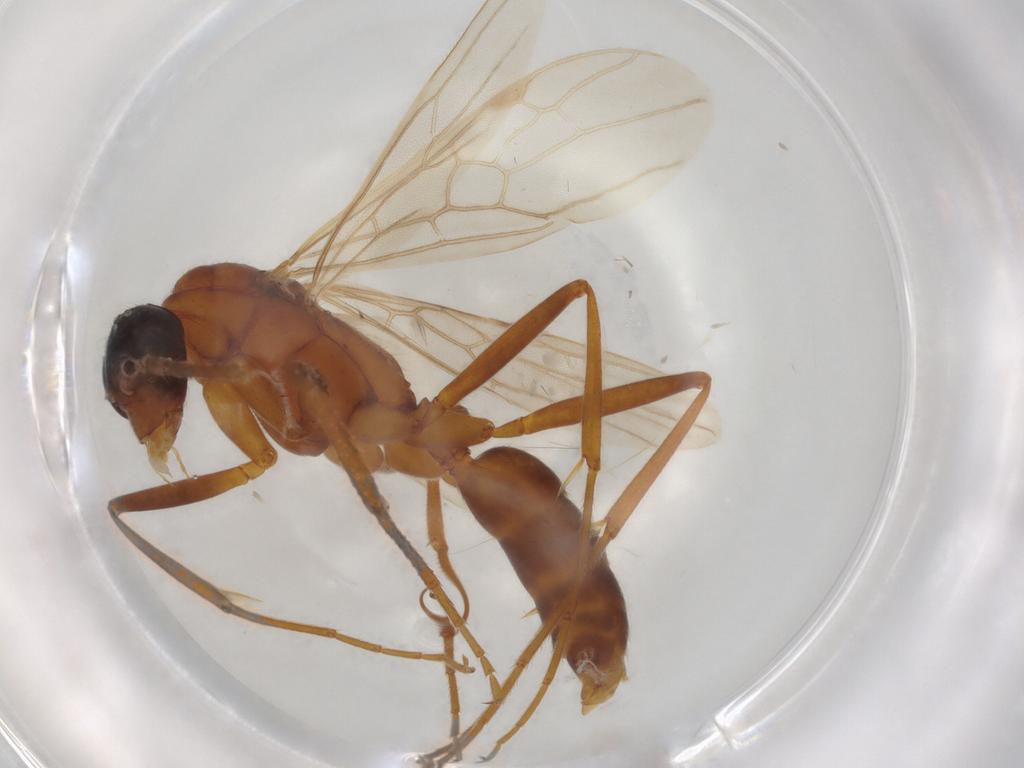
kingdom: Animalia
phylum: Arthropoda
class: Insecta
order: Hymenoptera
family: Formicidae
